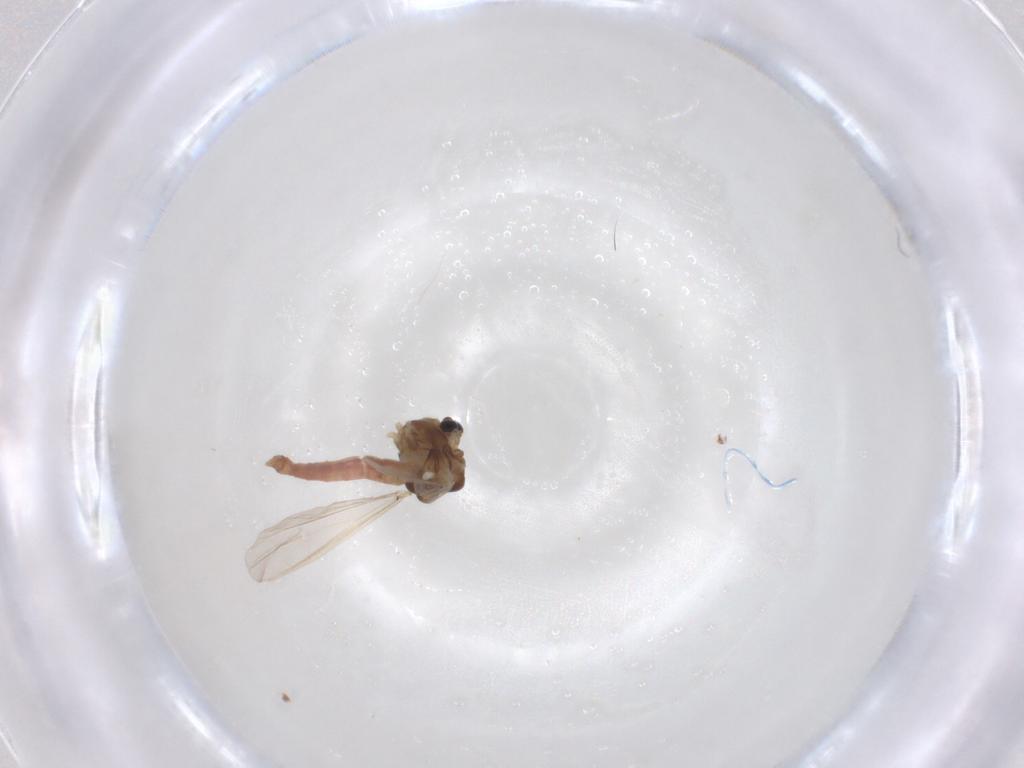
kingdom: Animalia
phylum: Arthropoda
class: Insecta
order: Diptera
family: Chironomidae
